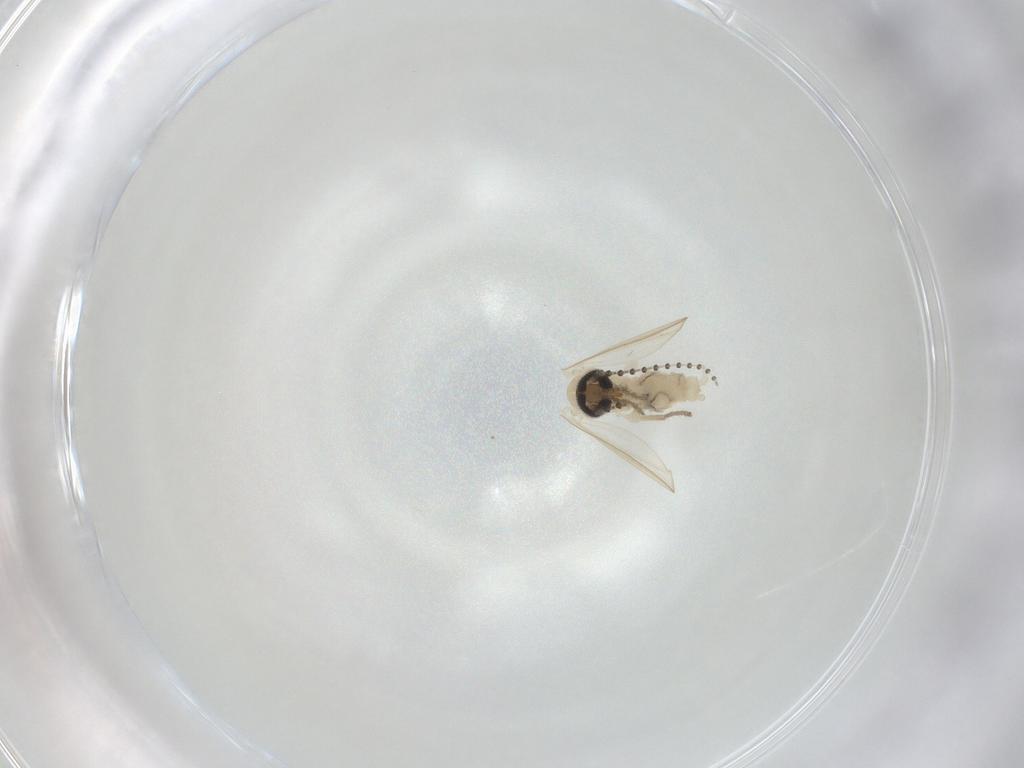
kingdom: Animalia
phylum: Arthropoda
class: Insecta
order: Diptera
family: Psychodidae
